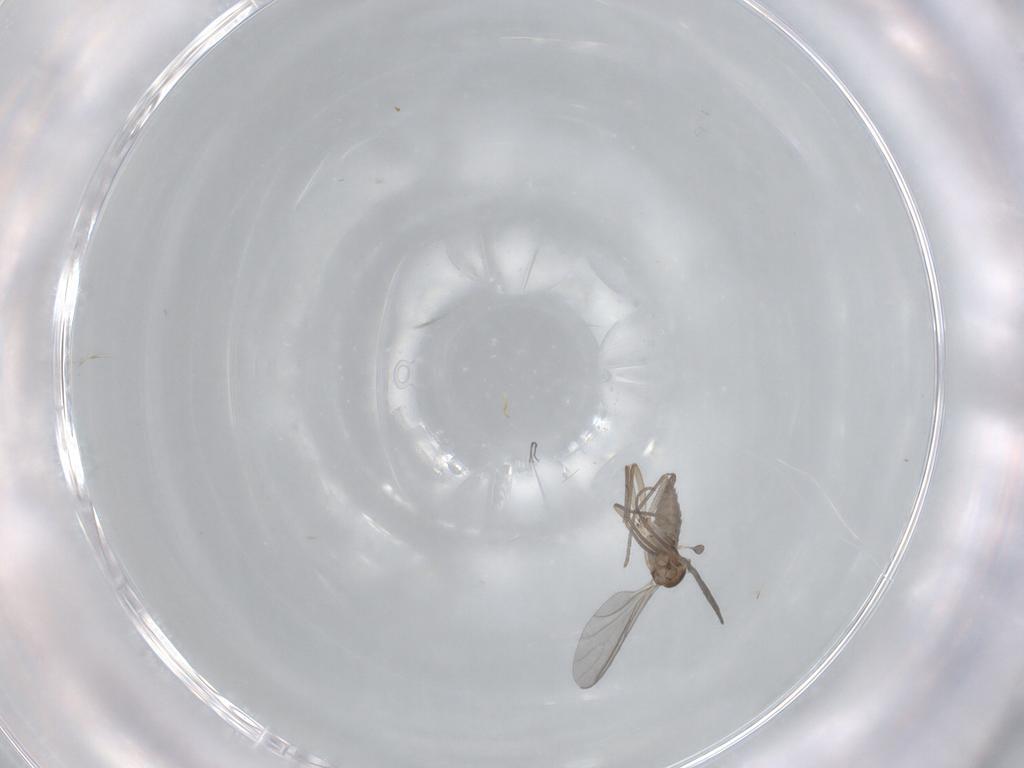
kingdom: Animalia
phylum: Arthropoda
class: Insecta
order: Diptera
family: Sciaridae
